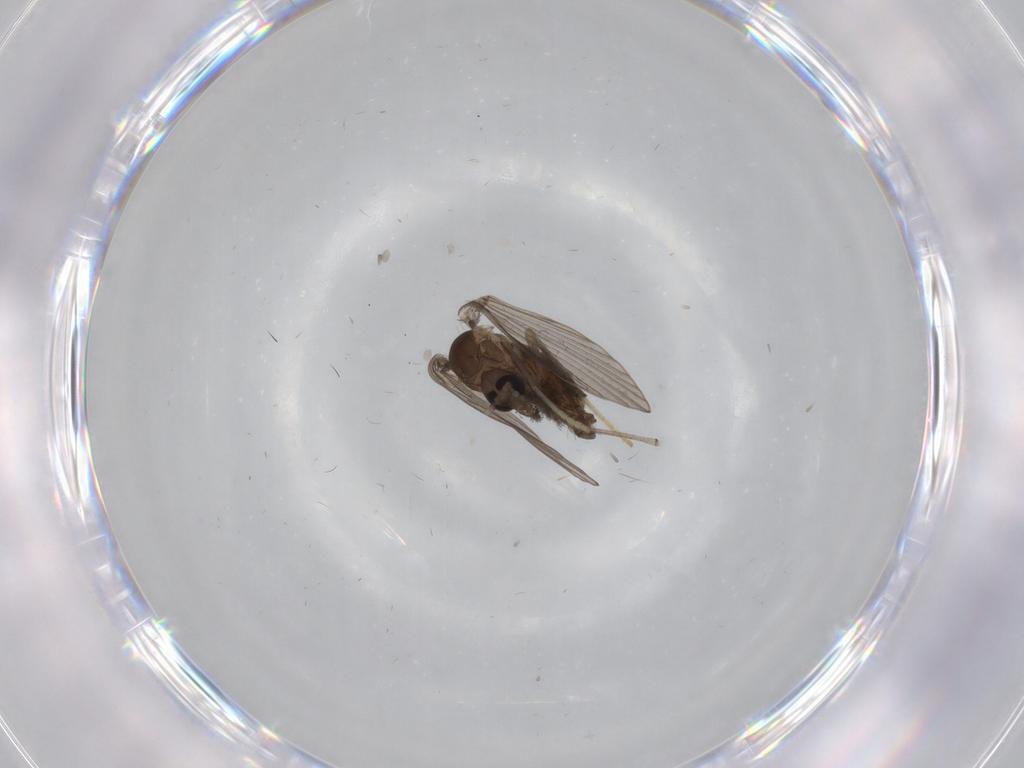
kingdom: Animalia
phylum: Arthropoda
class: Insecta
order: Diptera
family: Psychodidae
